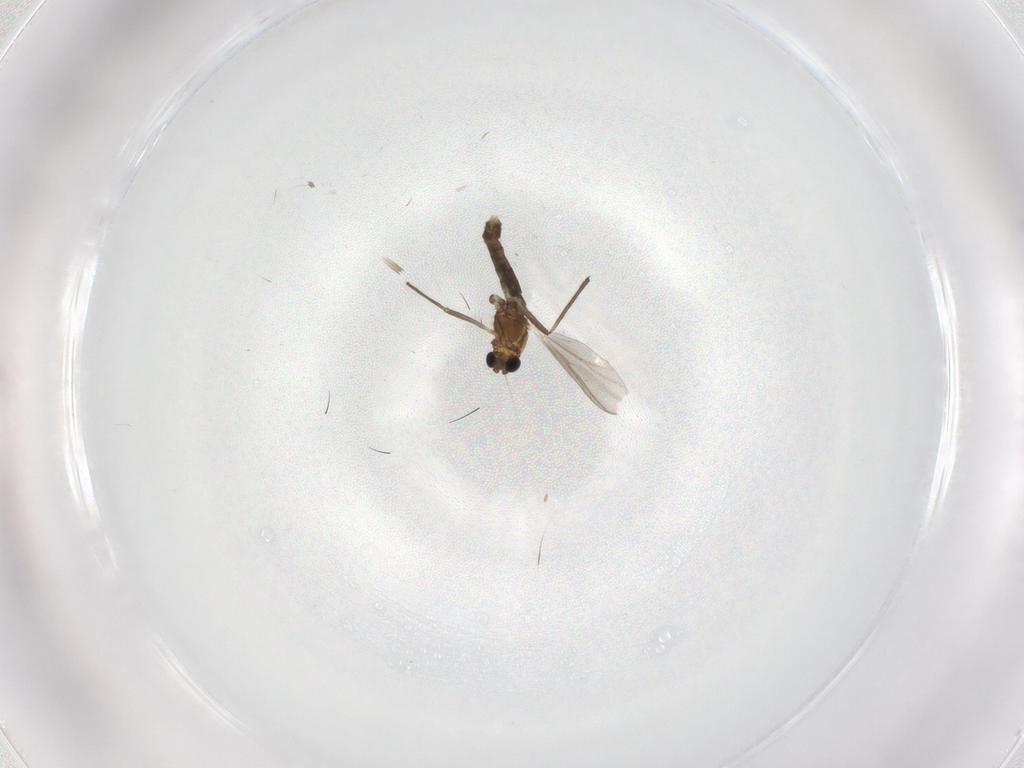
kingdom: Animalia
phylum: Arthropoda
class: Insecta
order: Diptera
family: Chironomidae
